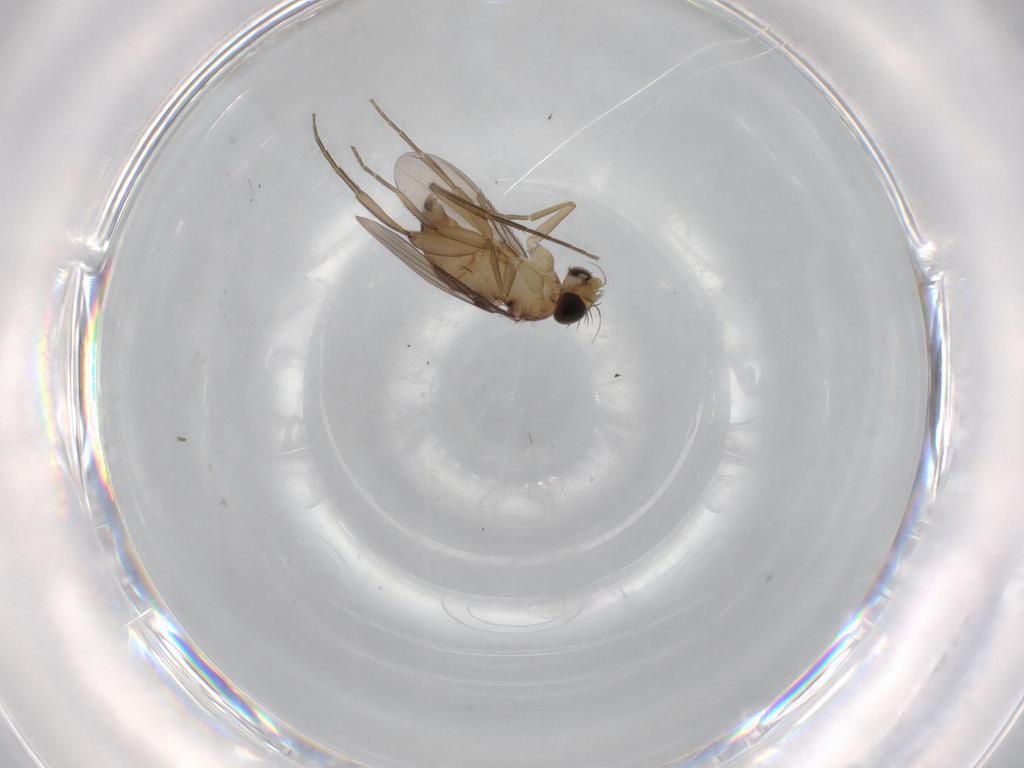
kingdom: Animalia
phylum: Arthropoda
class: Insecta
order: Diptera
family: Phoridae
